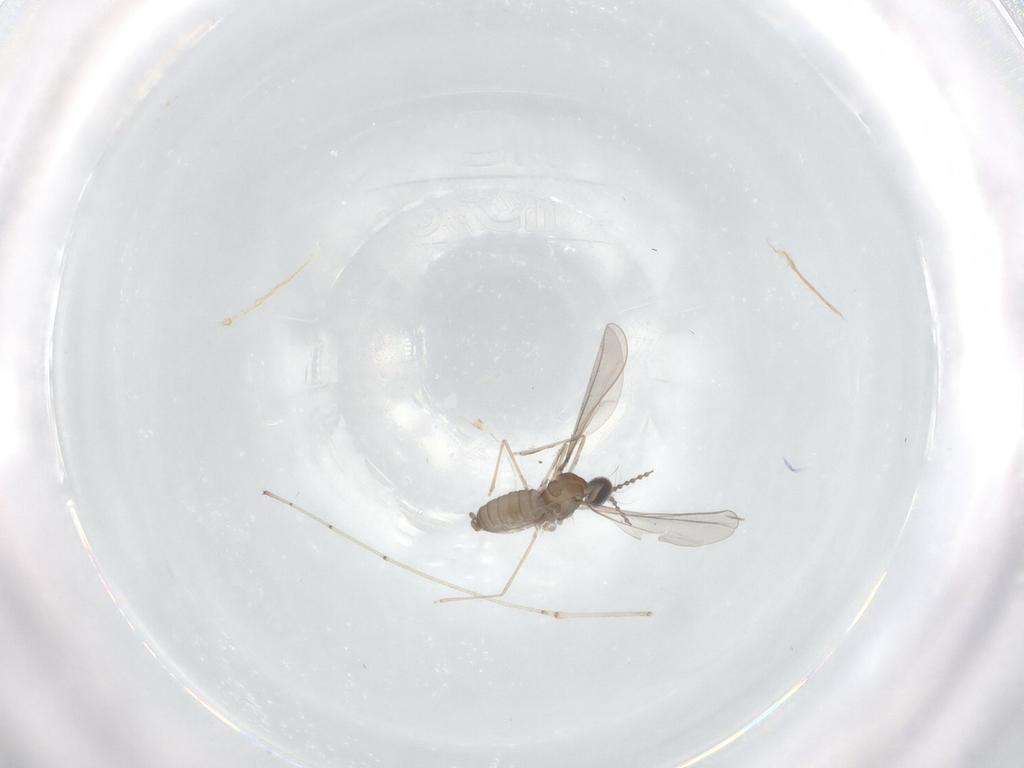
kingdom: Animalia
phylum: Arthropoda
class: Insecta
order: Diptera
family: Cecidomyiidae
